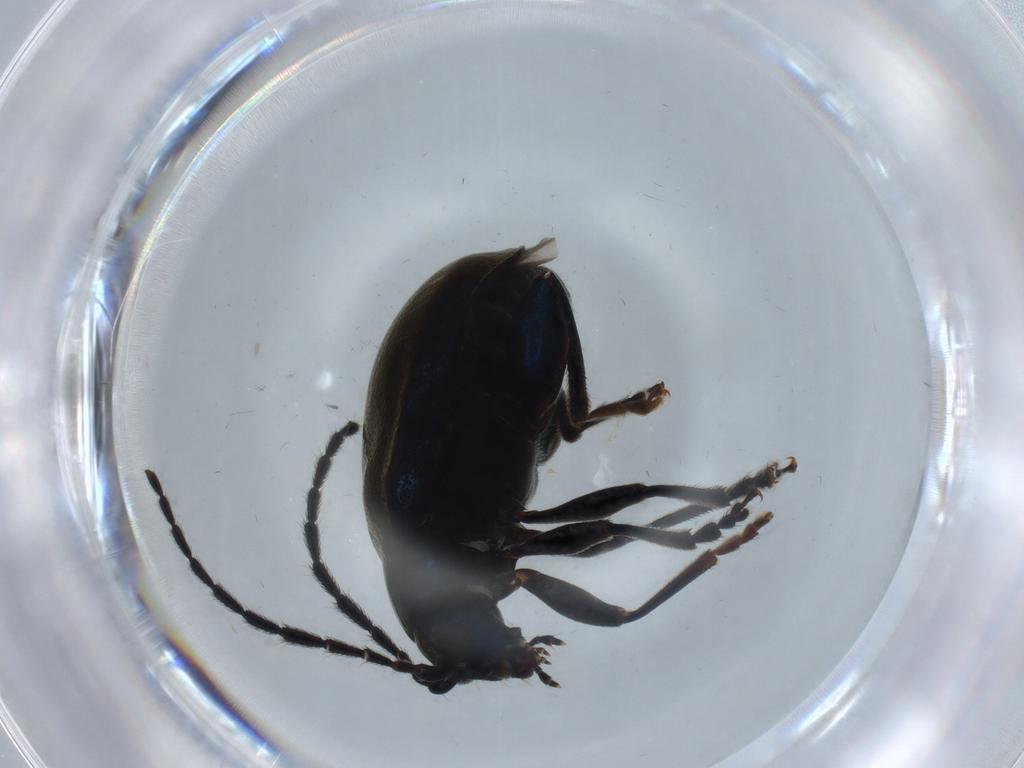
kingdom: Animalia
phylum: Arthropoda
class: Insecta
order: Coleoptera
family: Chrysomelidae
